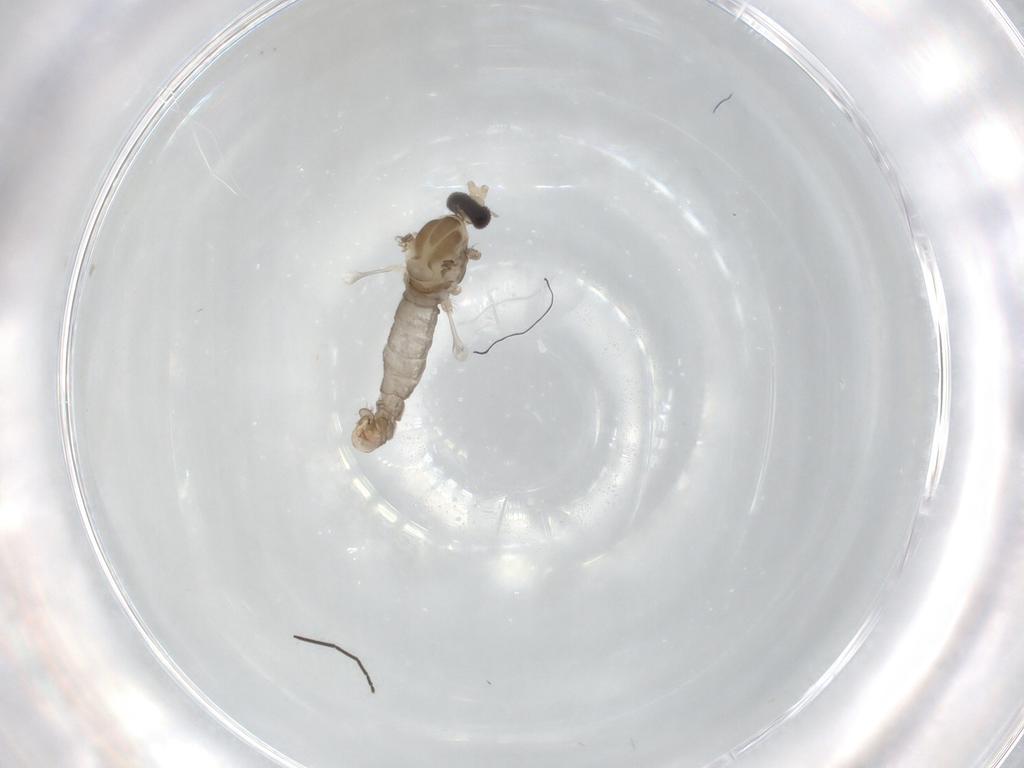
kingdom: Animalia
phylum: Arthropoda
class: Insecta
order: Diptera
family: Cecidomyiidae
